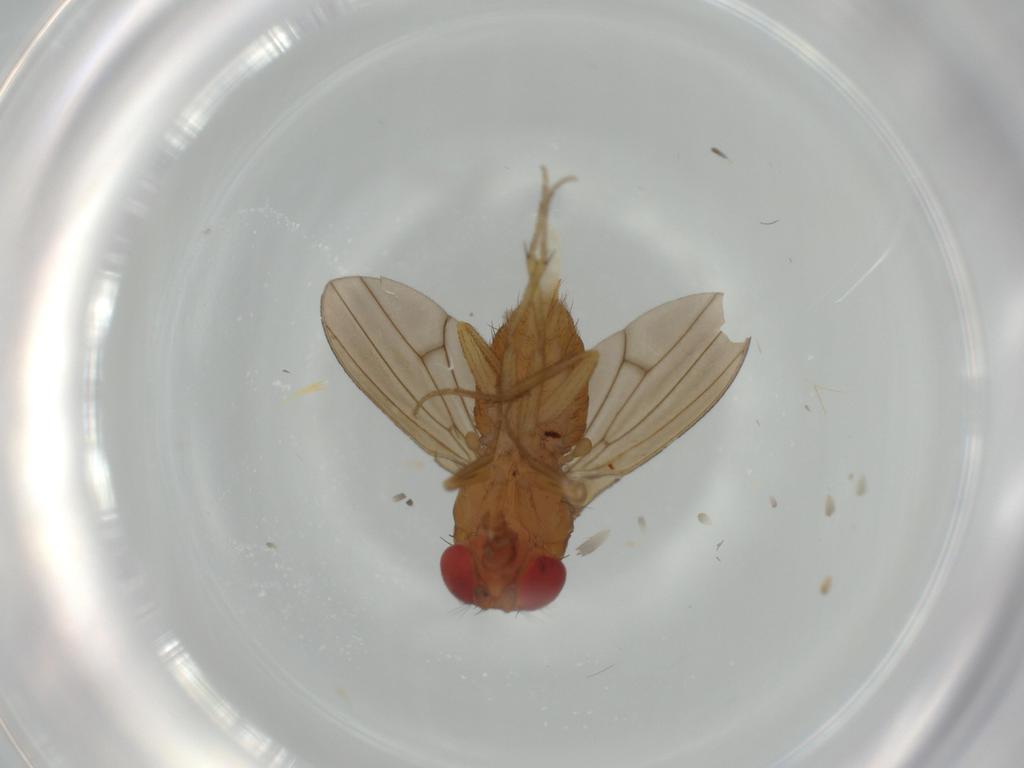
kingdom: Animalia
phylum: Arthropoda
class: Insecta
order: Diptera
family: Drosophilidae
